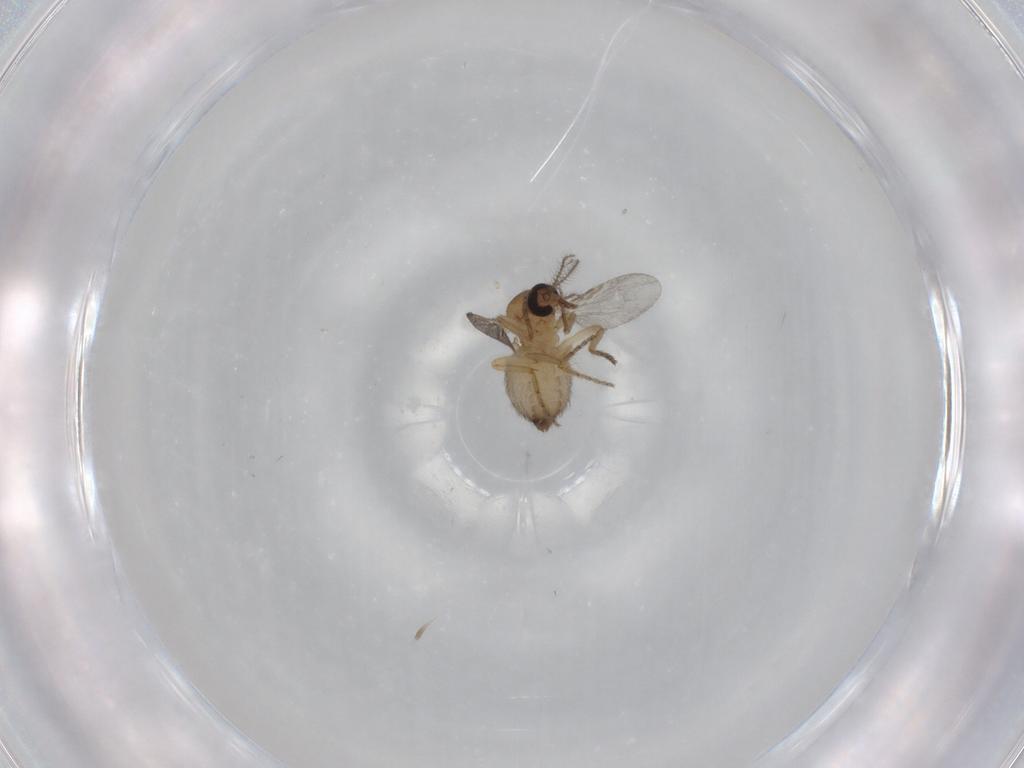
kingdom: Animalia
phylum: Arthropoda
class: Insecta
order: Diptera
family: Ceratopogonidae
